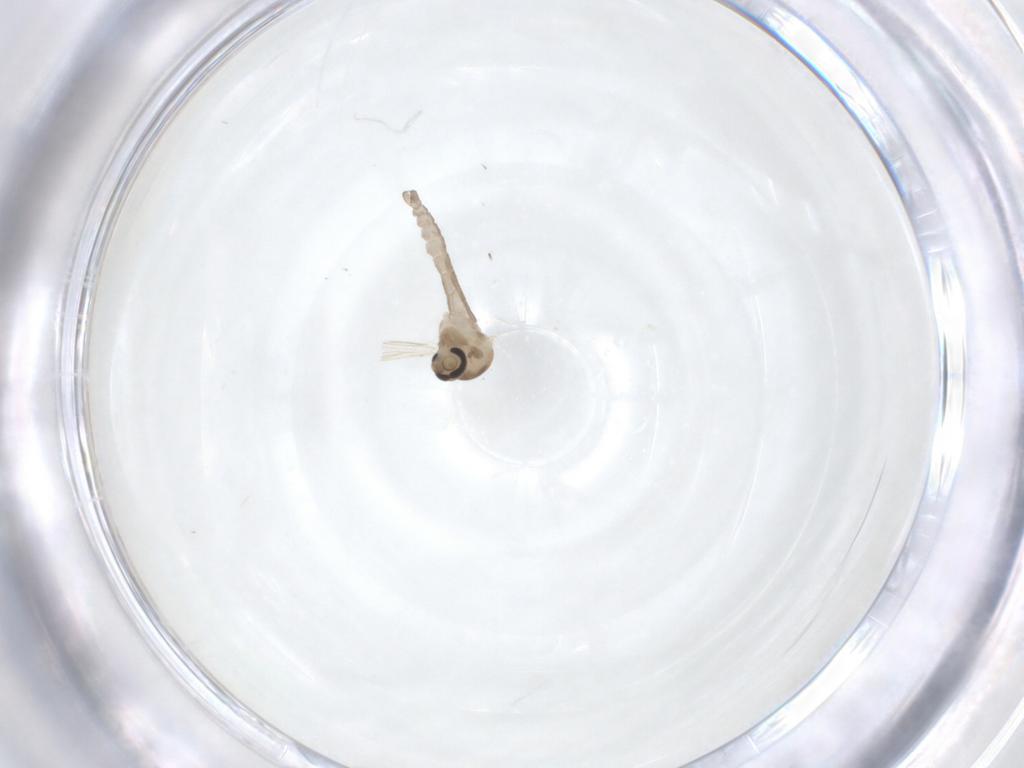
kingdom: Animalia
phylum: Arthropoda
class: Insecta
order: Diptera
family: Ceratopogonidae
